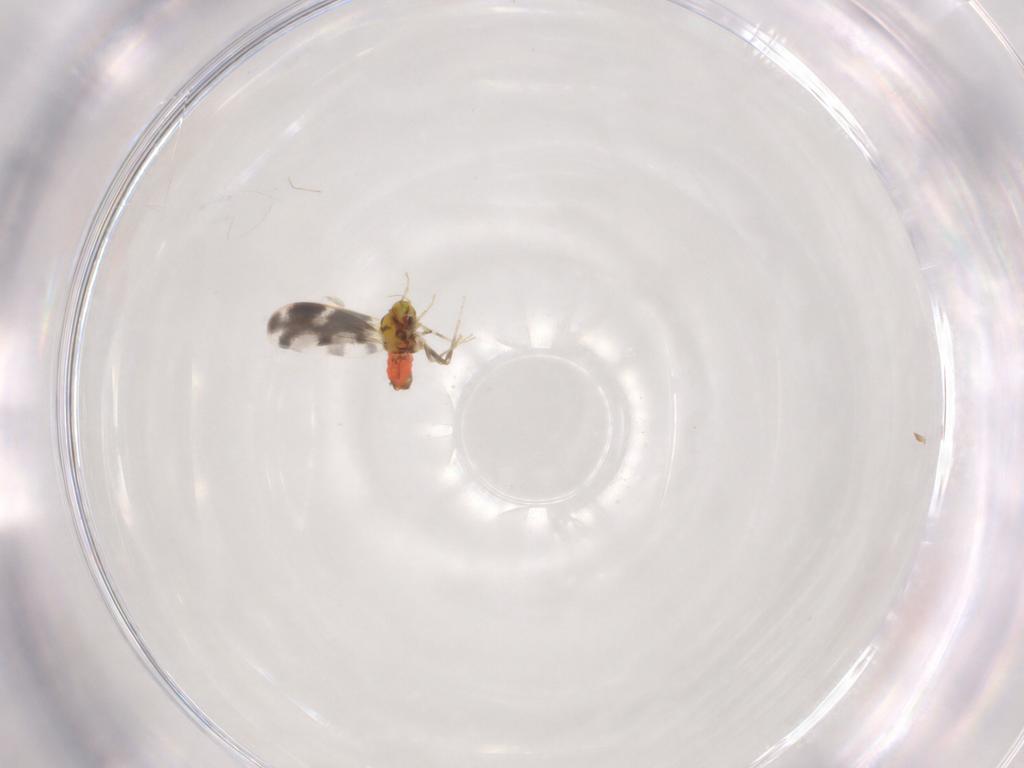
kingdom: Animalia
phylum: Arthropoda
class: Insecta
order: Hemiptera
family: Aleyrodidae
